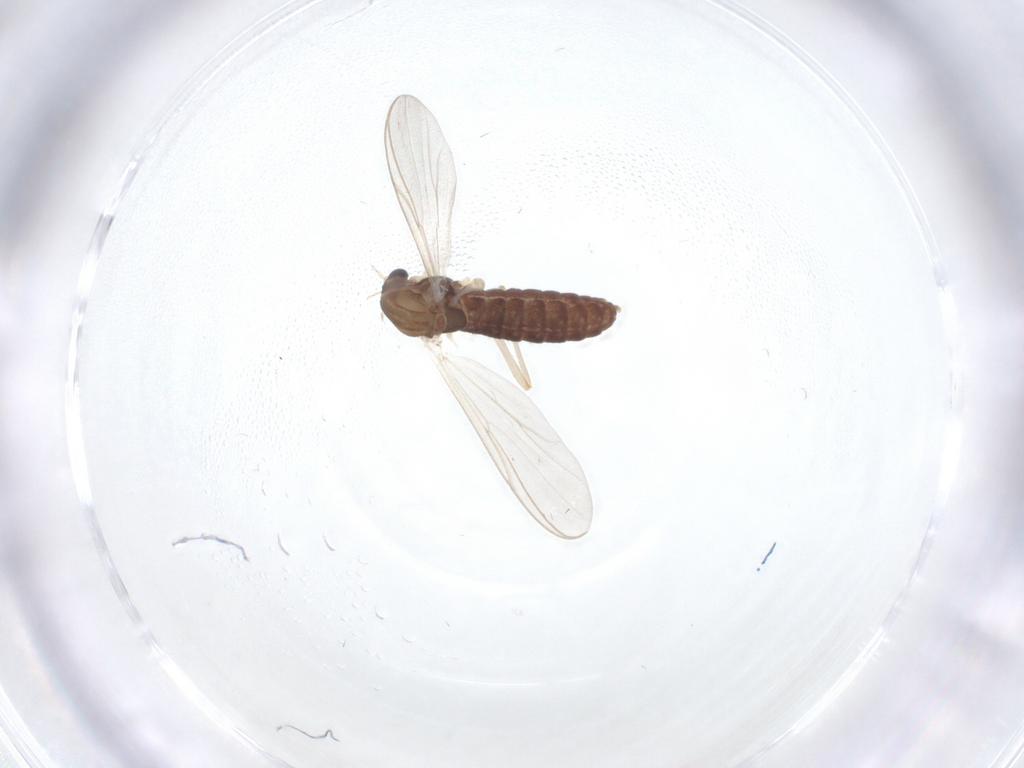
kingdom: Animalia
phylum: Arthropoda
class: Insecta
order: Diptera
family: Chironomidae
